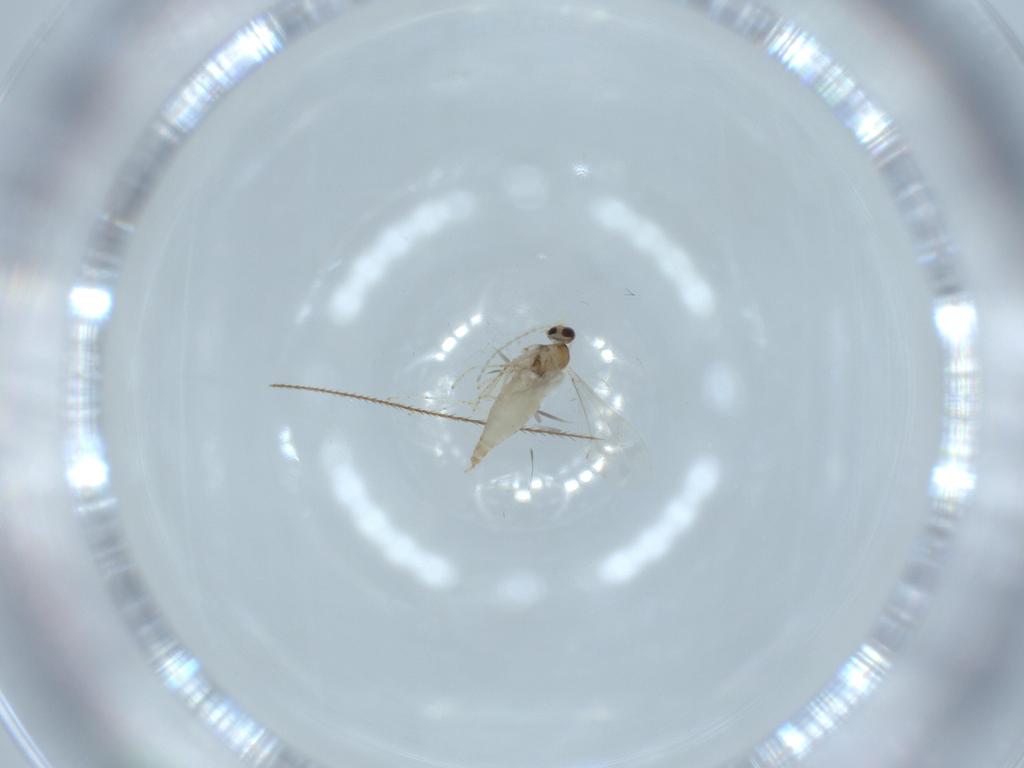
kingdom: Animalia
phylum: Arthropoda
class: Insecta
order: Diptera
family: Cecidomyiidae
